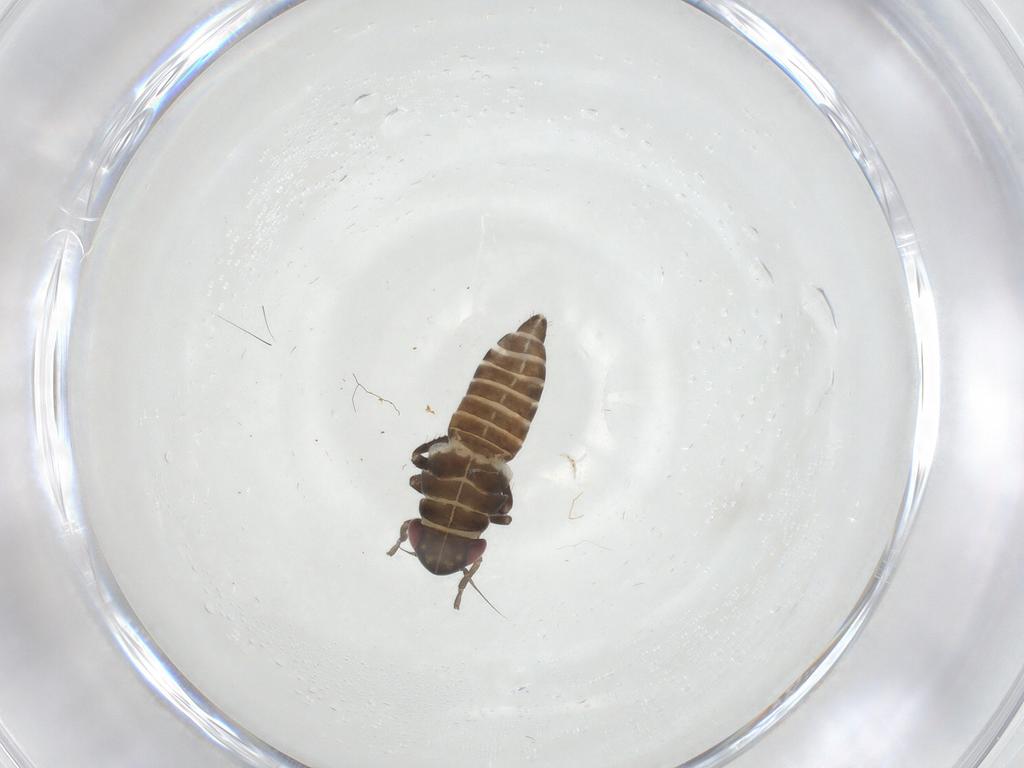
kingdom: Animalia
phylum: Arthropoda
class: Insecta
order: Hemiptera
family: Cicadellidae
